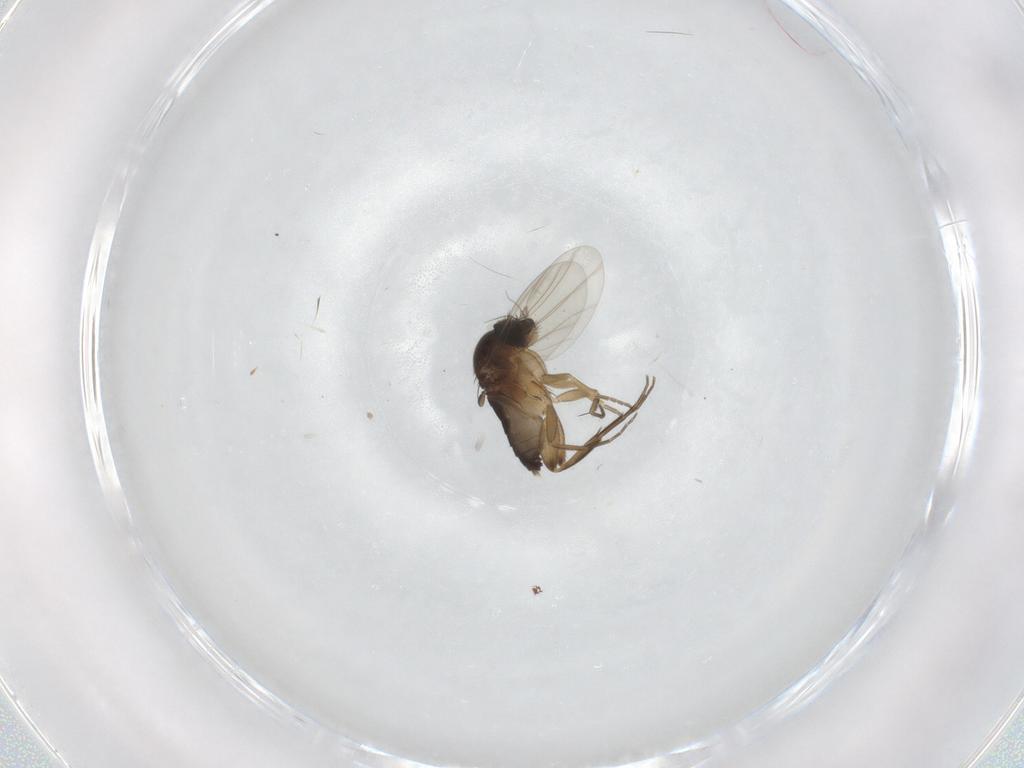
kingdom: Animalia
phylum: Arthropoda
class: Insecta
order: Diptera
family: Phoridae
